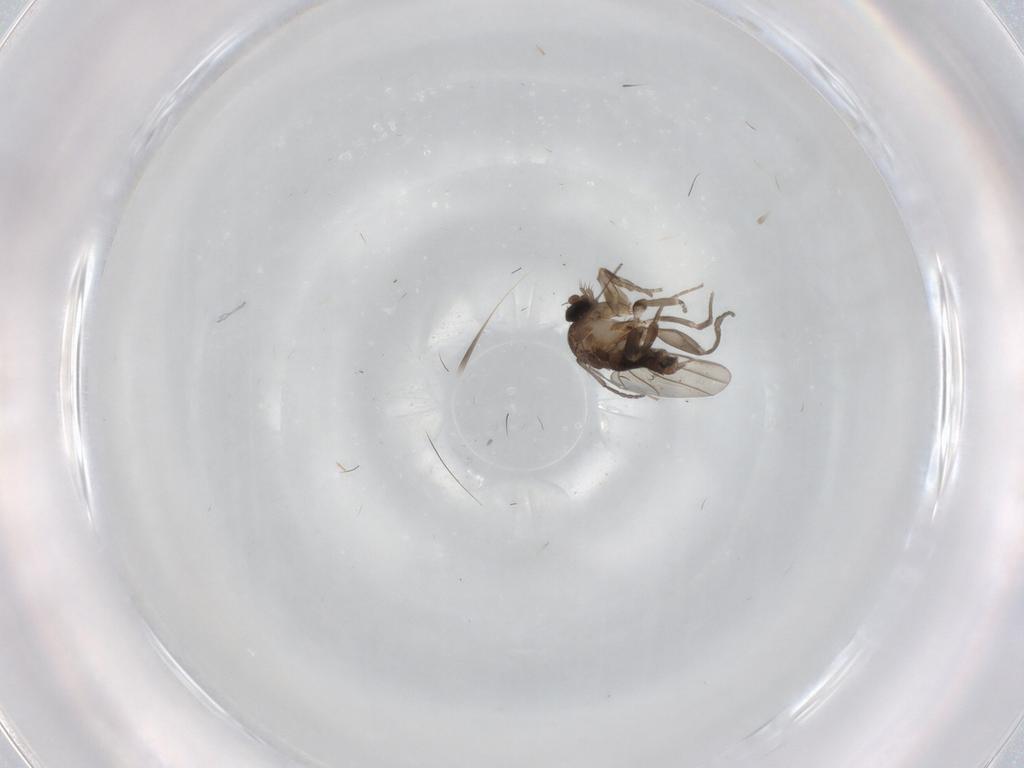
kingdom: Animalia
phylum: Arthropoda
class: Insecta
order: Diptera
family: Sciaridae
